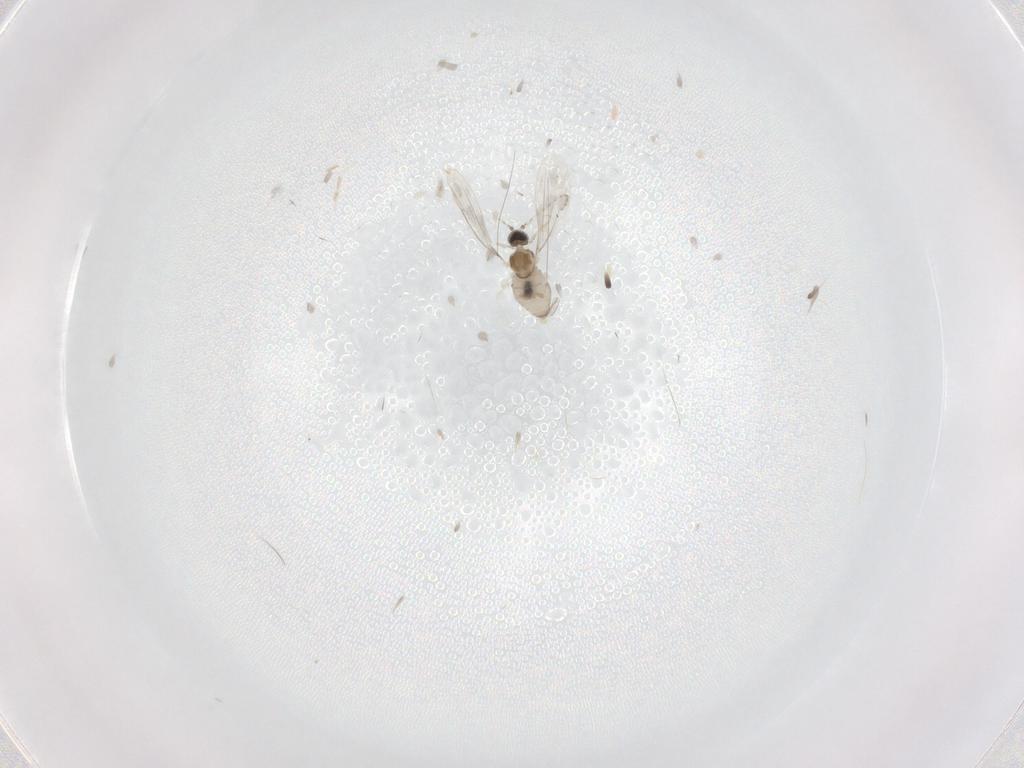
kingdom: Animalia
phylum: Arthropoda
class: Insecta
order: Diptera
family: Cecidomyiidae
